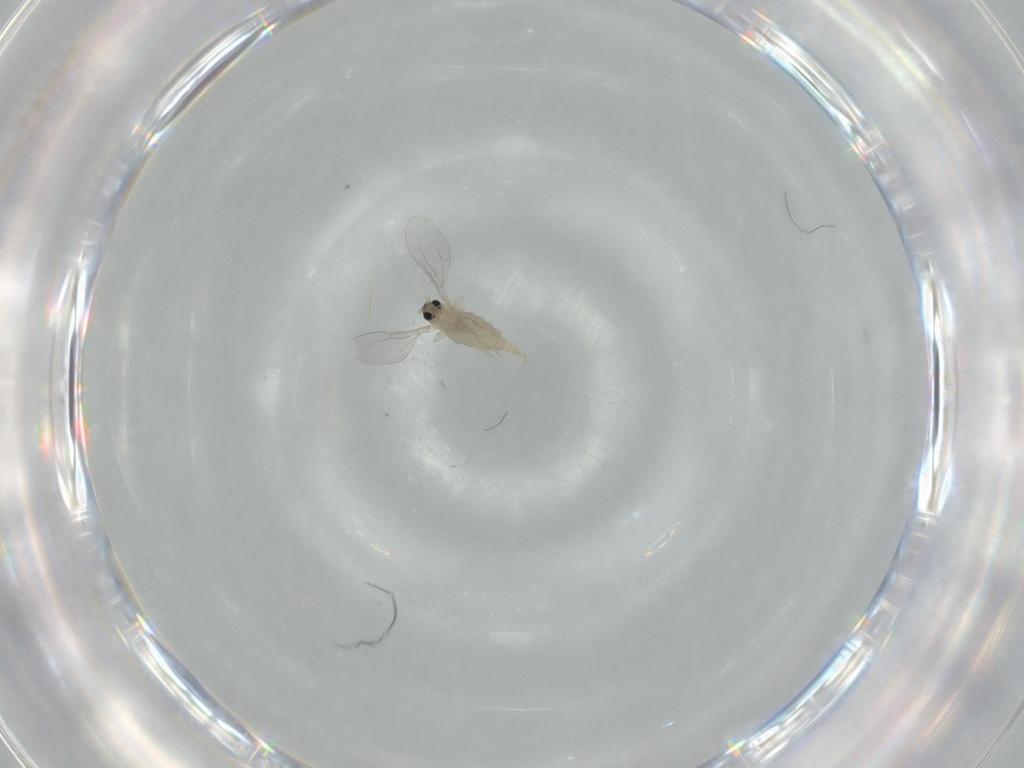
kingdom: Animalia
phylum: Arthropoda
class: Insecta
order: Diptera
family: Cecidomyiidae
